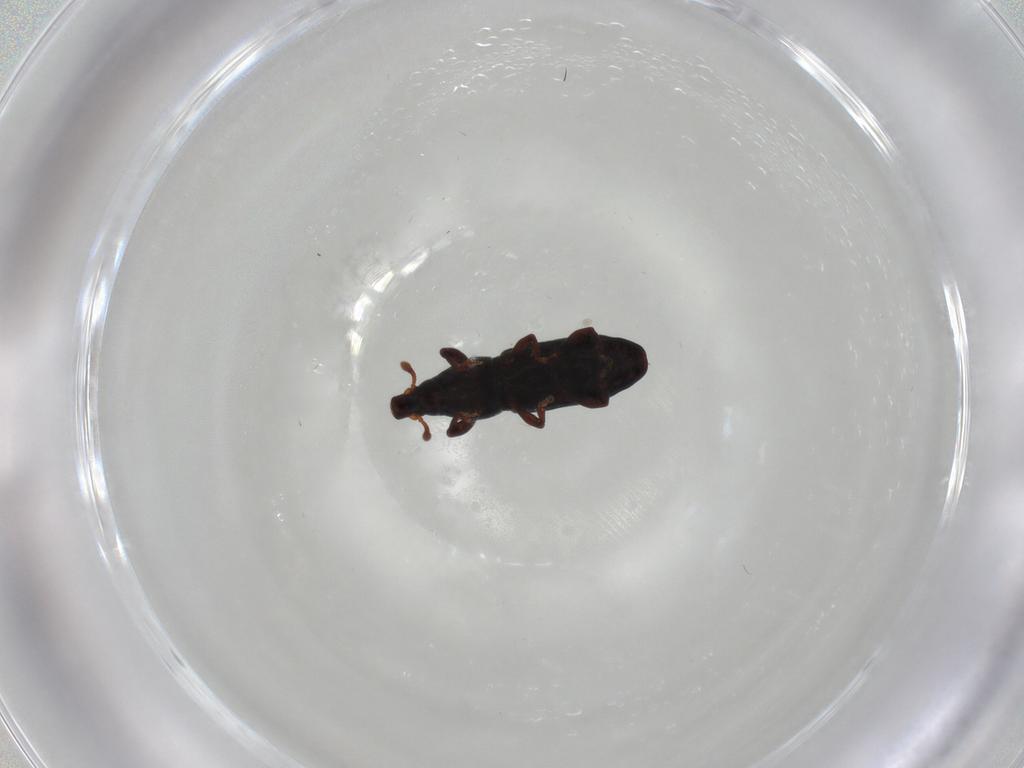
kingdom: Animalia
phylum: Arthropoda
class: Insecta
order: Coleoptera
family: Curculionidae
